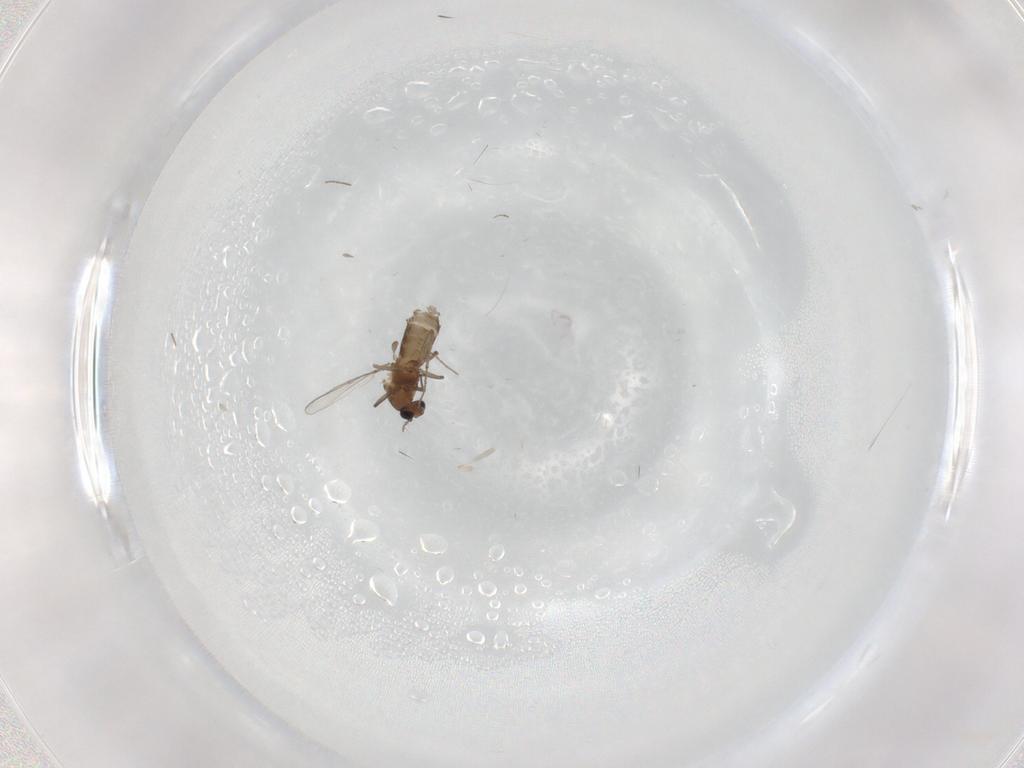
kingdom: Animalia
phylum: Arthropoda
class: Insecta
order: Diptera
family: Chironomidae
